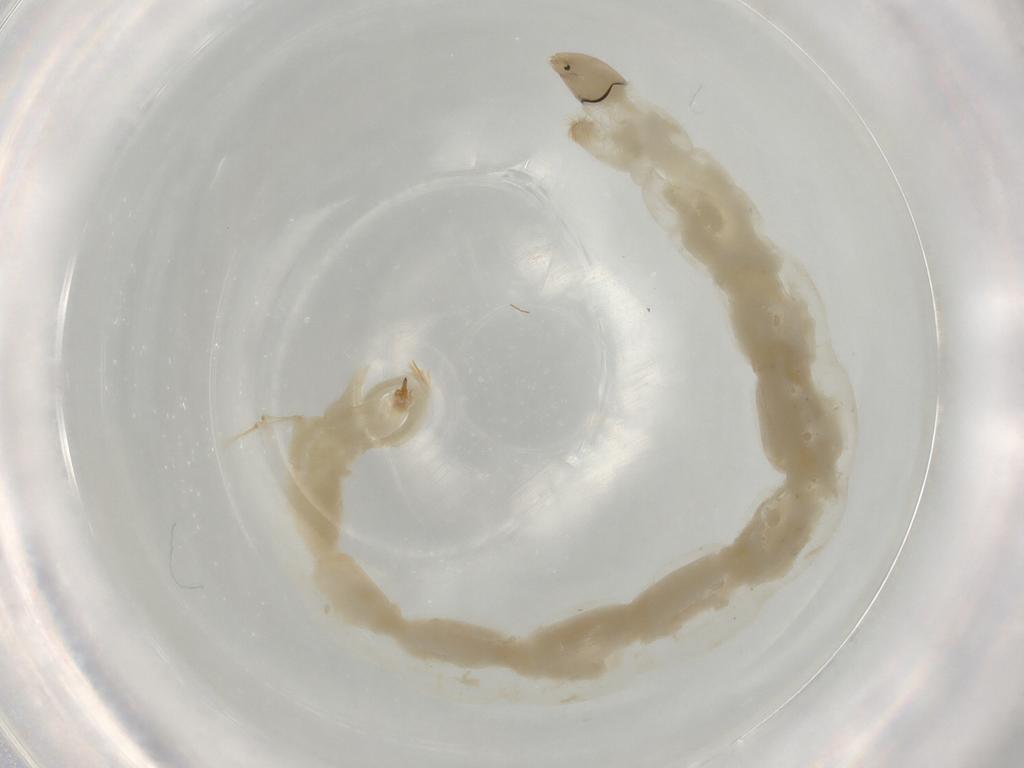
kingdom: Animalia
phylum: Arthropoda
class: Insecta
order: Diptera
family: Chironomidae
